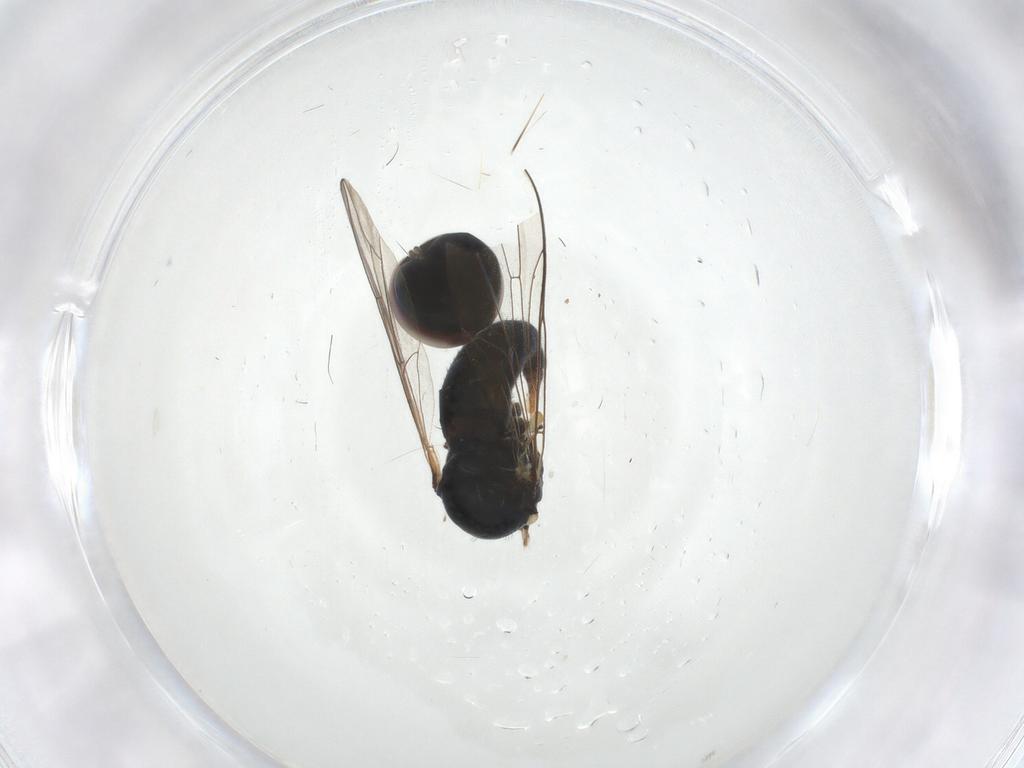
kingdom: Animalia
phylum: Arthropoda
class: Insecta
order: Diptera
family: Pipunculidae
